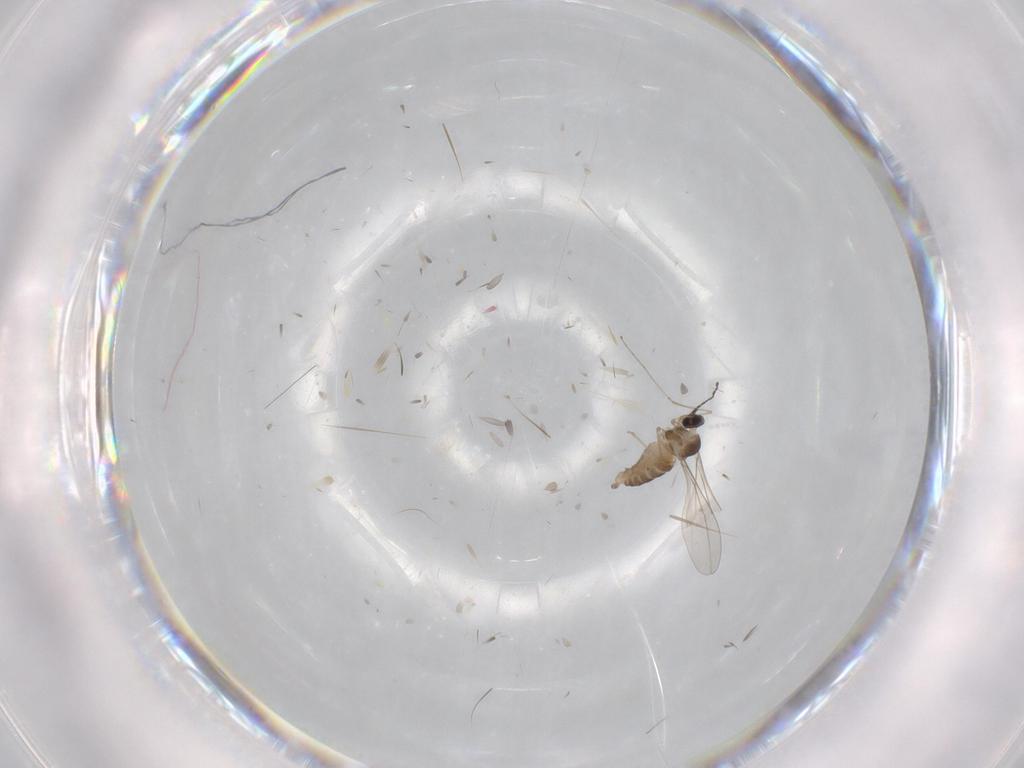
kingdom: Animalia
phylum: Arthropoda
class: Insecta
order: Diptera
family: Cecidomyiidae
